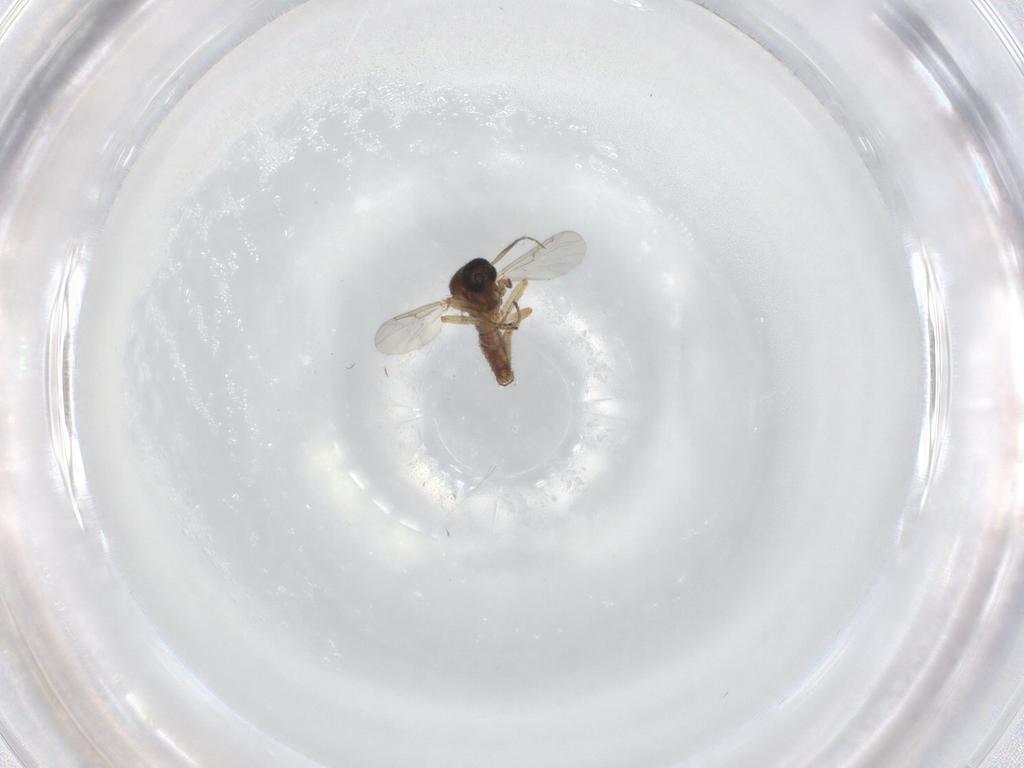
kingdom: Animalia
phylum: Arthropoda
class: Insecta
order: Diptera
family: Ceratopogonidae
